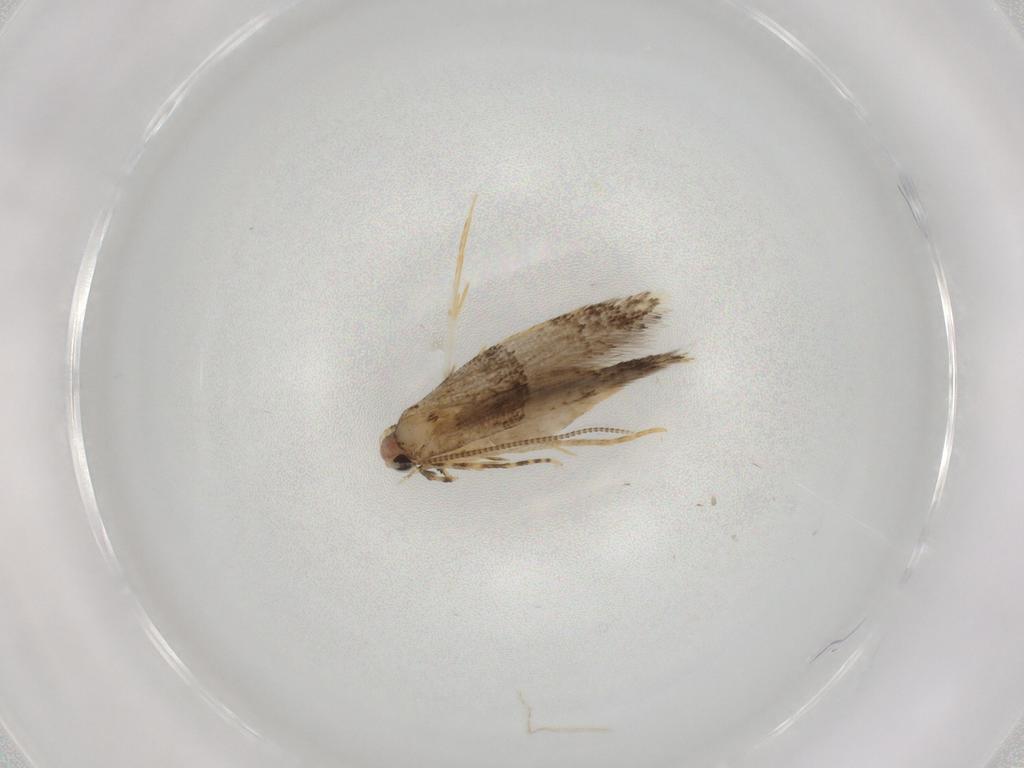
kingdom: Animalia
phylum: Arthropoda
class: Insecta
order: Lepidoptera
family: Tineidae
